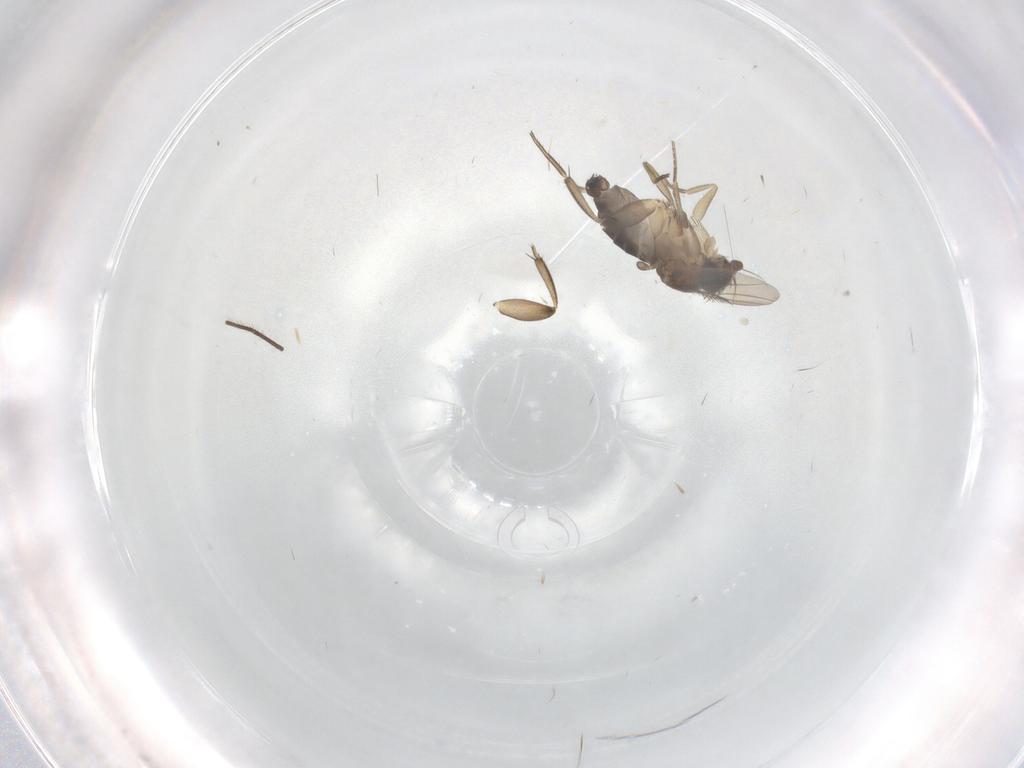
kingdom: Animalia
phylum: Arthropoda
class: Insecta
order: Diptera
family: Phoridae
